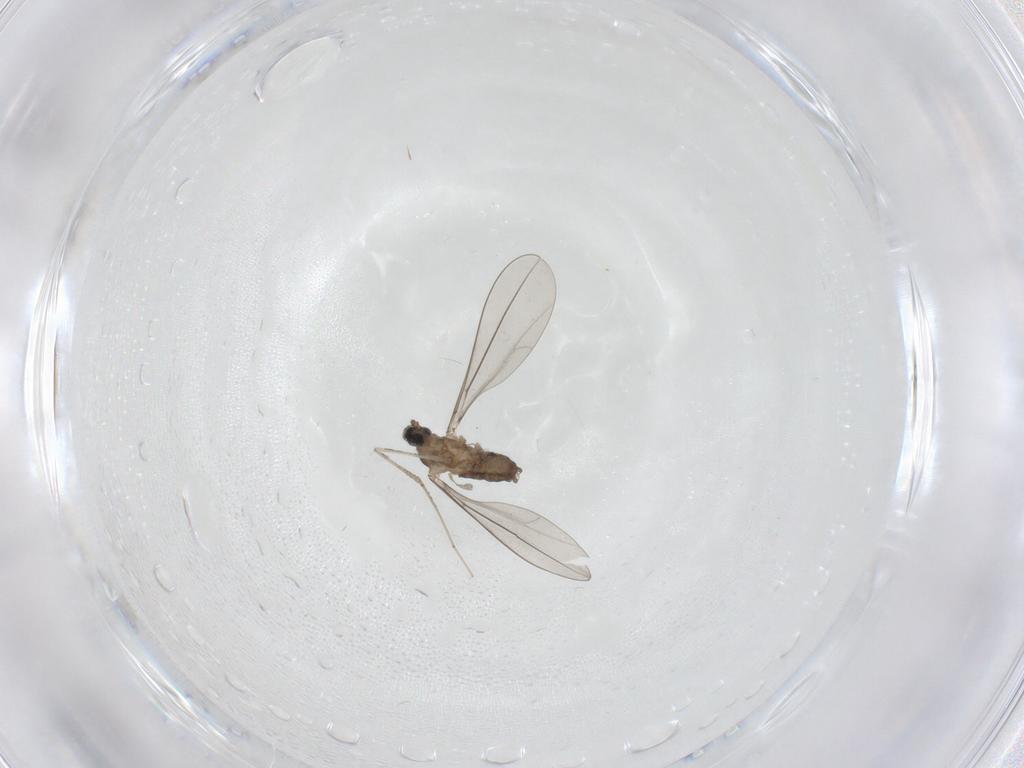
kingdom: Animalia
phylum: Arthropoda
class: Insecta
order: Diptera
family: Cecidomyiidae
